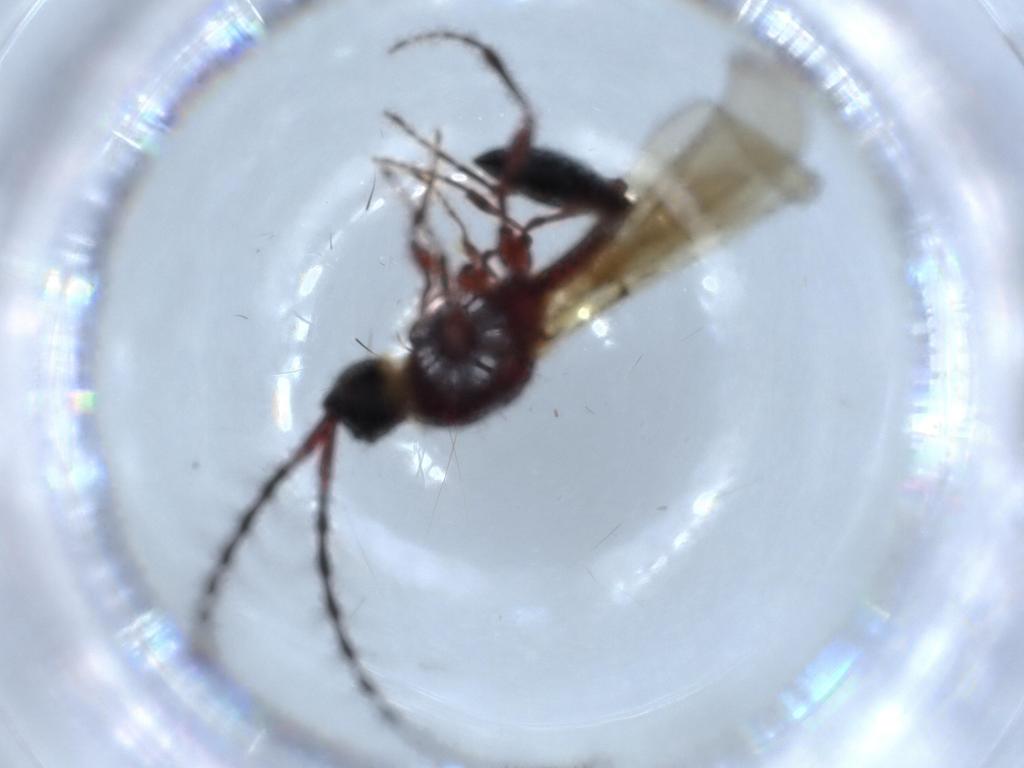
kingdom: Animalia
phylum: Arthropoda
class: Insecta
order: Hymenoptera
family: Diapriidae
